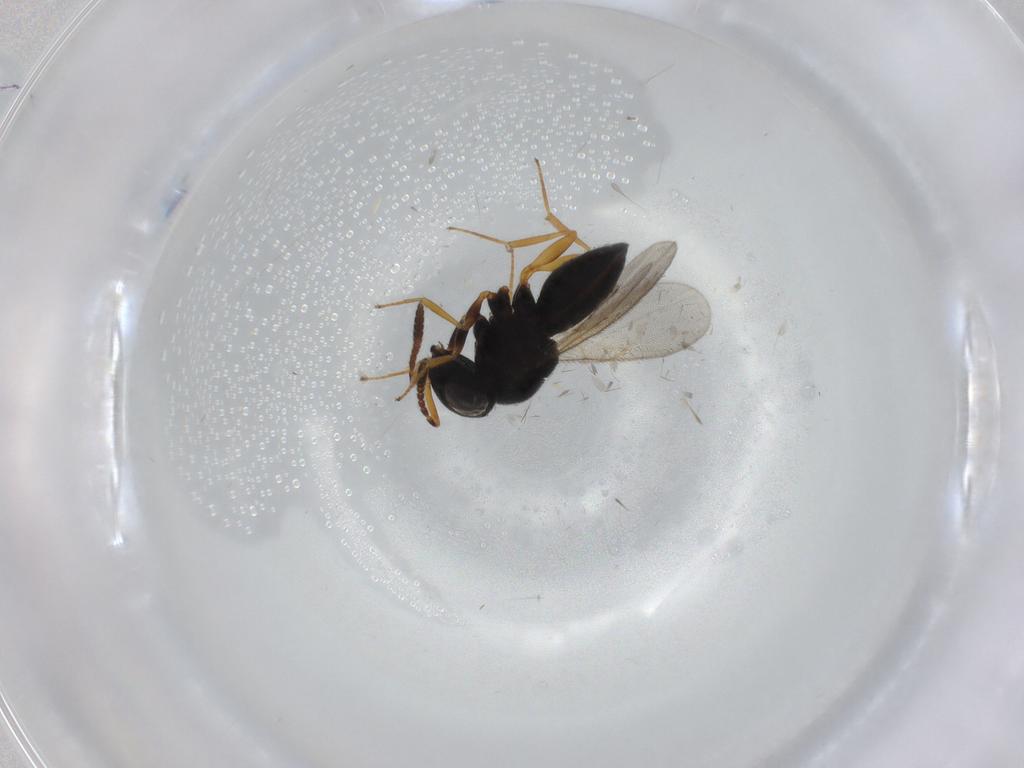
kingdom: Animalia
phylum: Arthropoda
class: Insecta
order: Hymenoptera
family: Scelionidae
